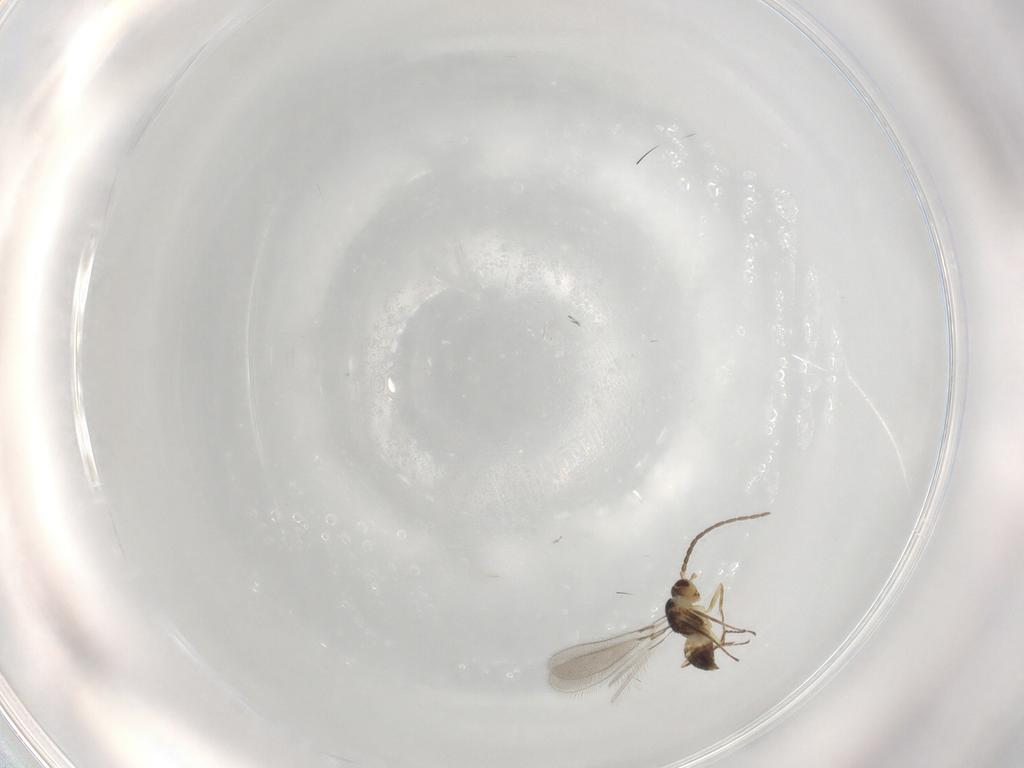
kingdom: Animalia
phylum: Arthropoda
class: Insecta
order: Hymenoptera
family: Mymaridae
